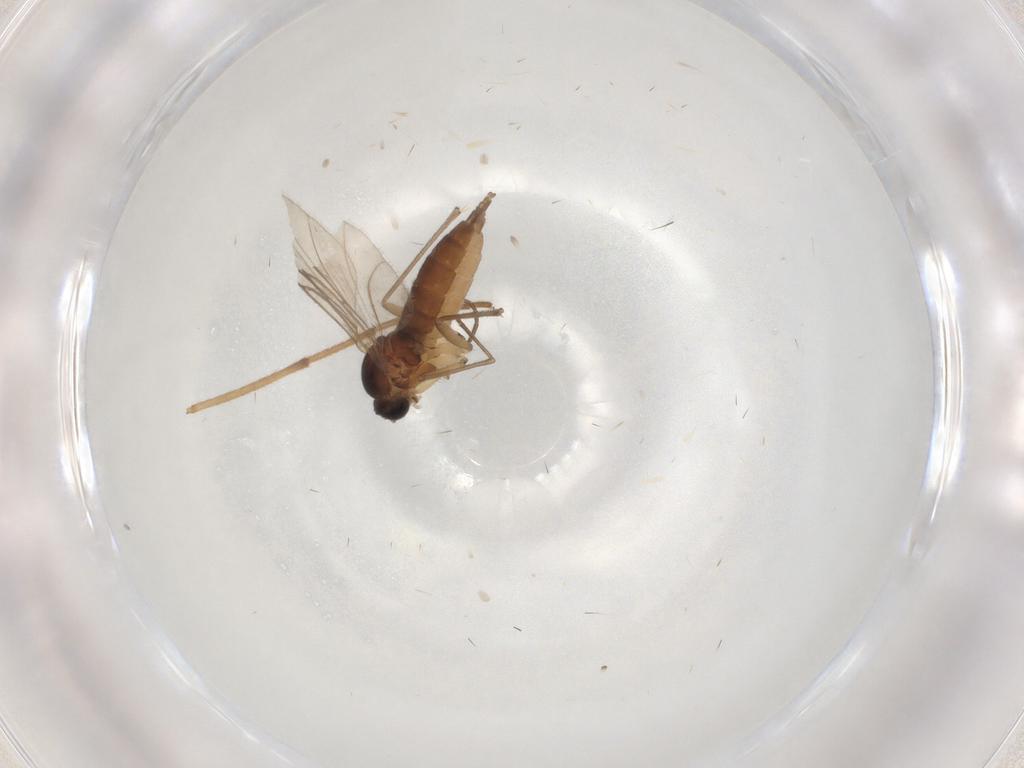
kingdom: Animalia
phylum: Arthropoda
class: Insecta
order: Diptera
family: Sciaridae
